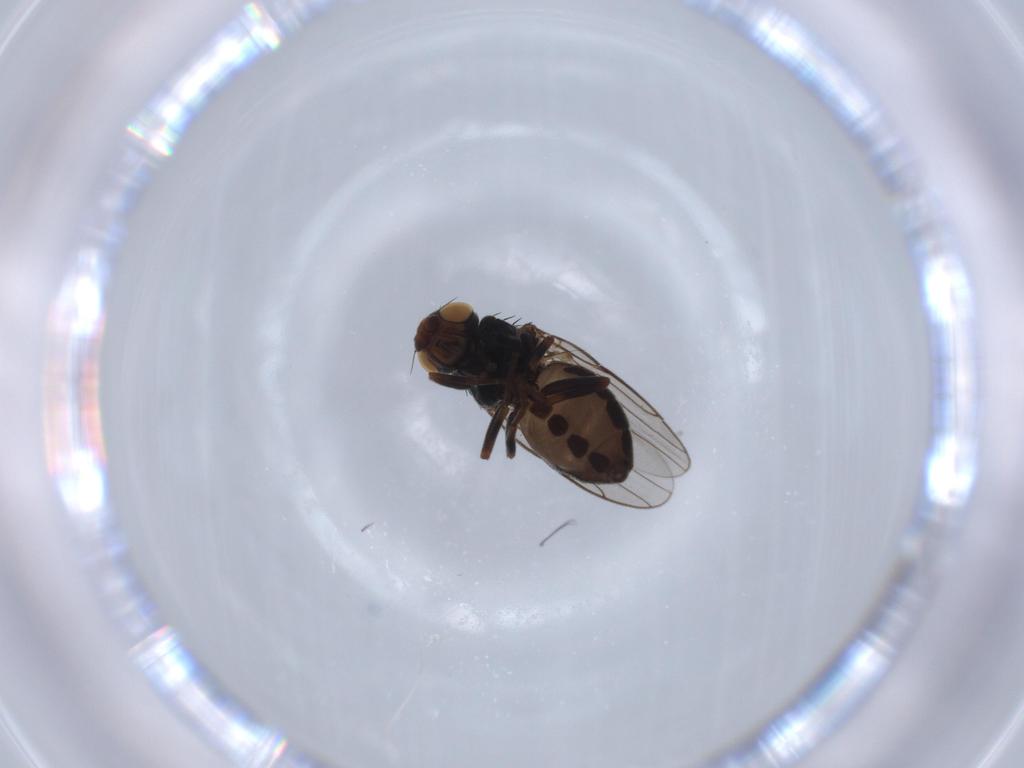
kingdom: Animalia
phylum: Arthropoda
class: Insecta
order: Diptera
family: Chloropidae
